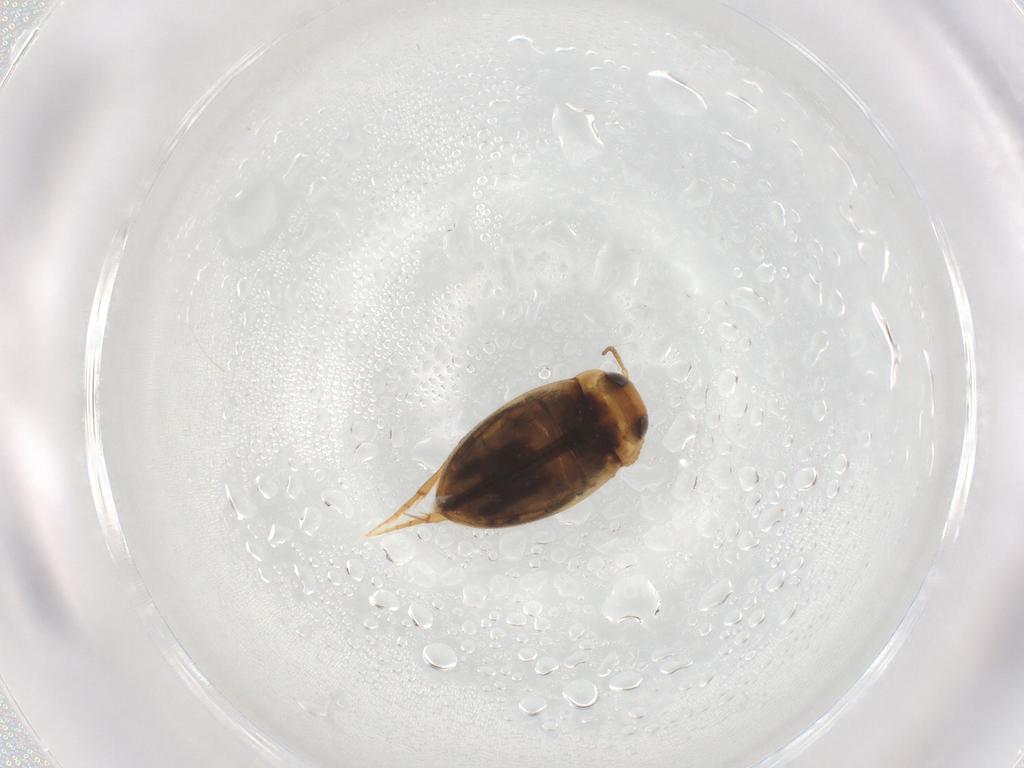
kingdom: Animalia
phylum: Arthropoda
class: Insecta
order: Coleoptera
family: Dytiscidae
